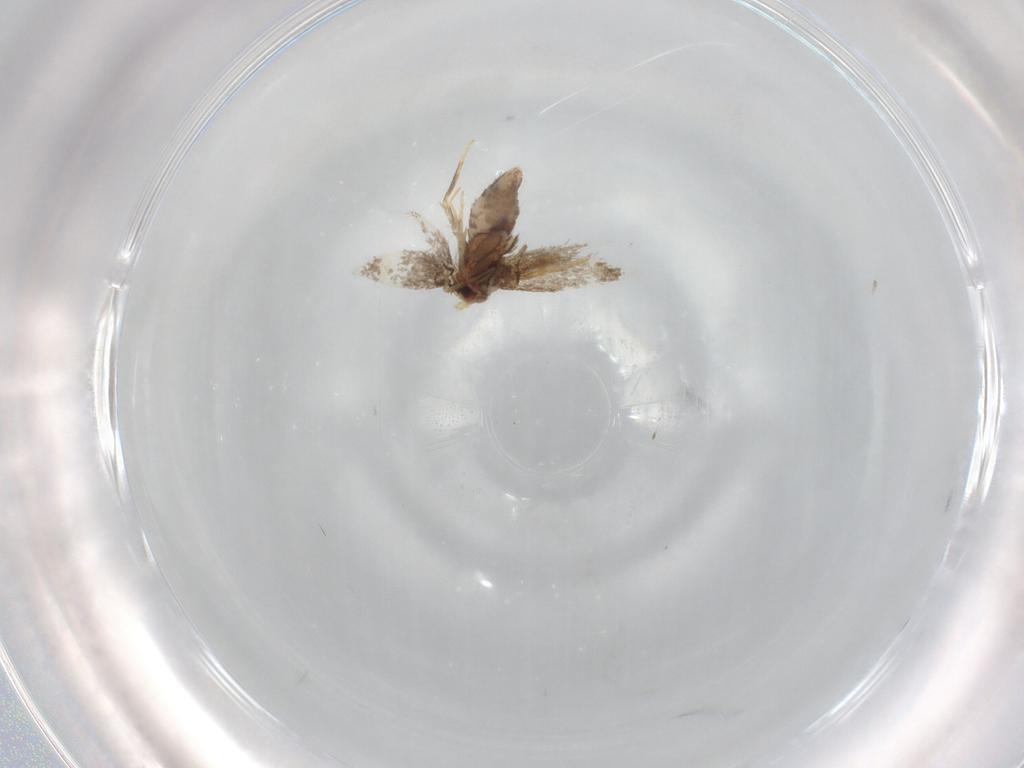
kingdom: Animalia
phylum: Arthropoda
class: Insecta
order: Lepidoptera
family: Nepticulidae
